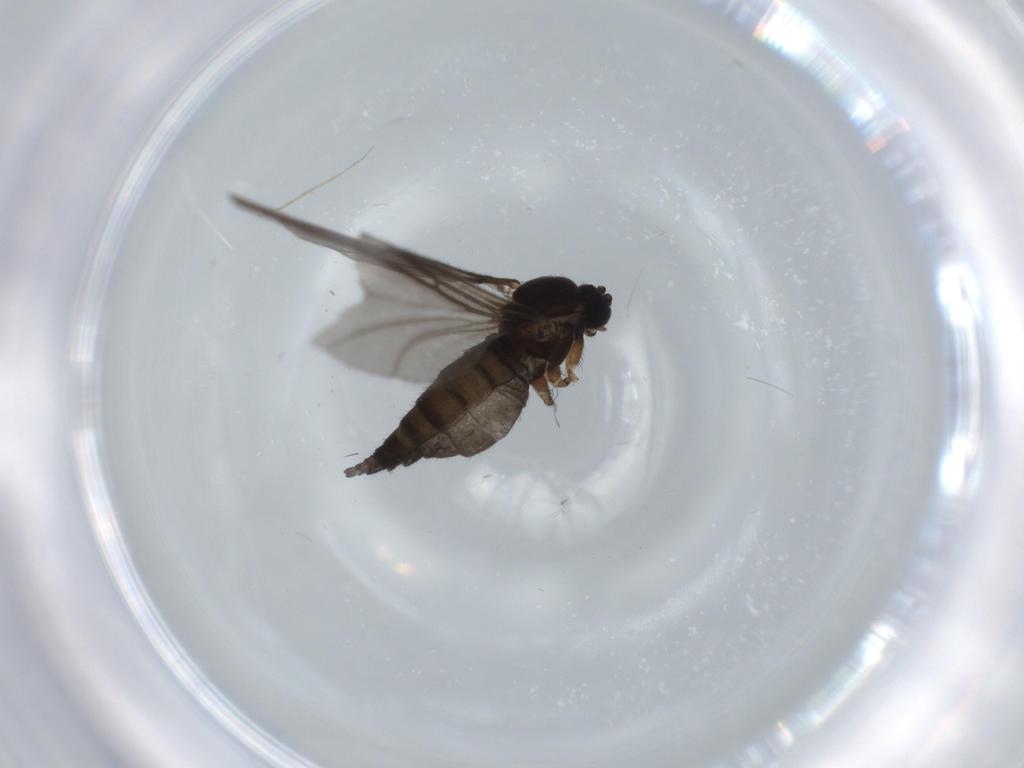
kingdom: Animalia
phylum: Arthropoda
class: Insecta
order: Diptera
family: Sciaridae
